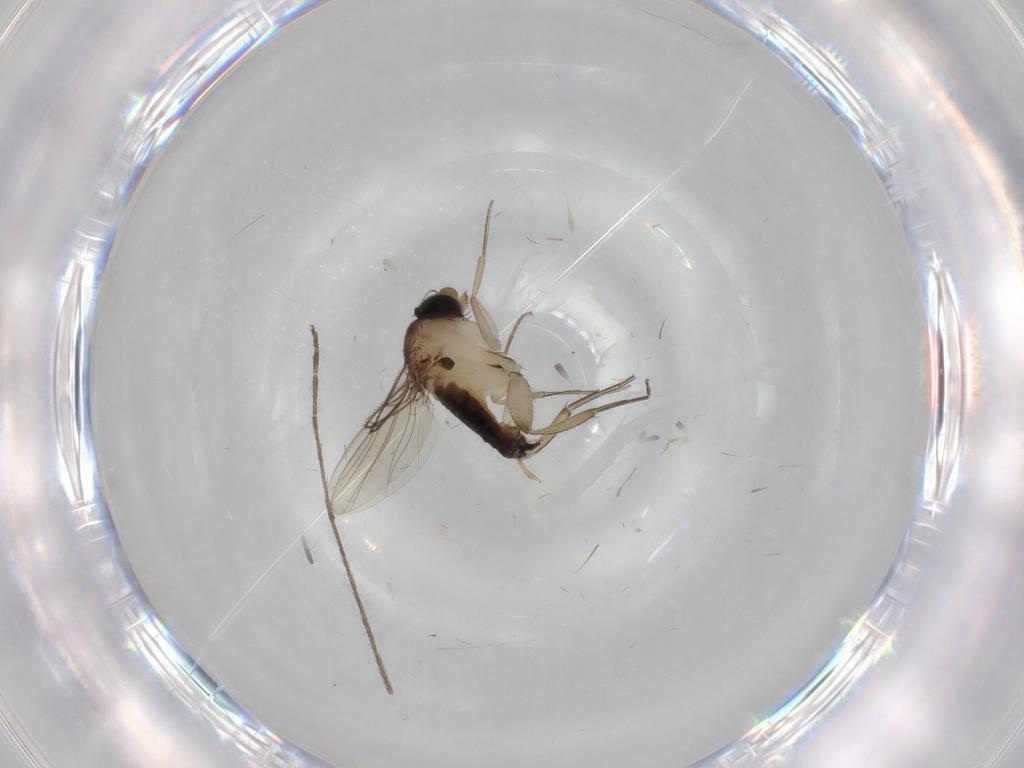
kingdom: Animalia
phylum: Arthropoda
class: Insecta
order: Diptera
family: Phoridae
